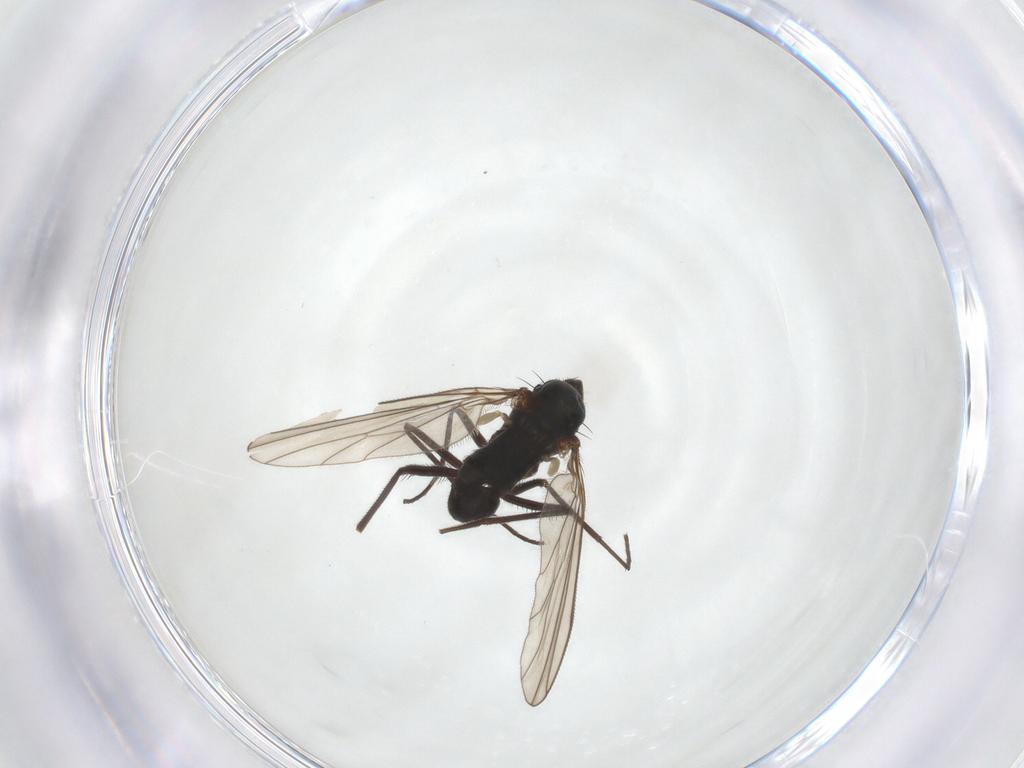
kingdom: Animalia
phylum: Arthropoda
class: Insecta
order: Diptera
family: Dolichopodidae
